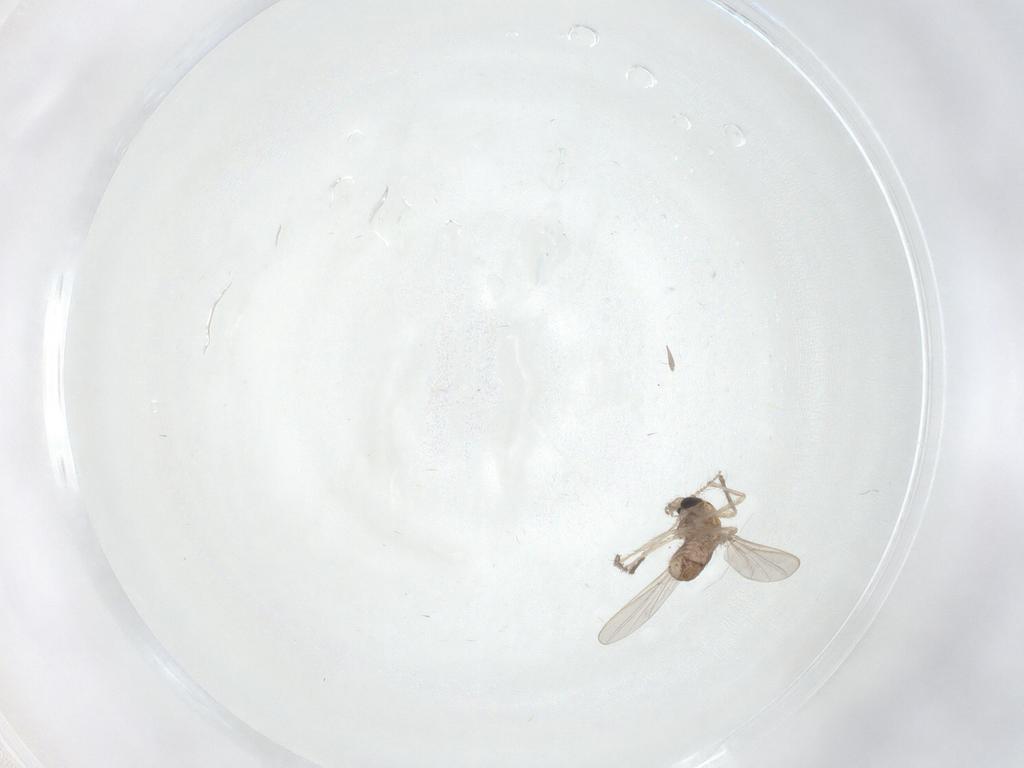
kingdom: Animalia
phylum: Arthropoda
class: Insecta
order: Diptera
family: Chironomidae
